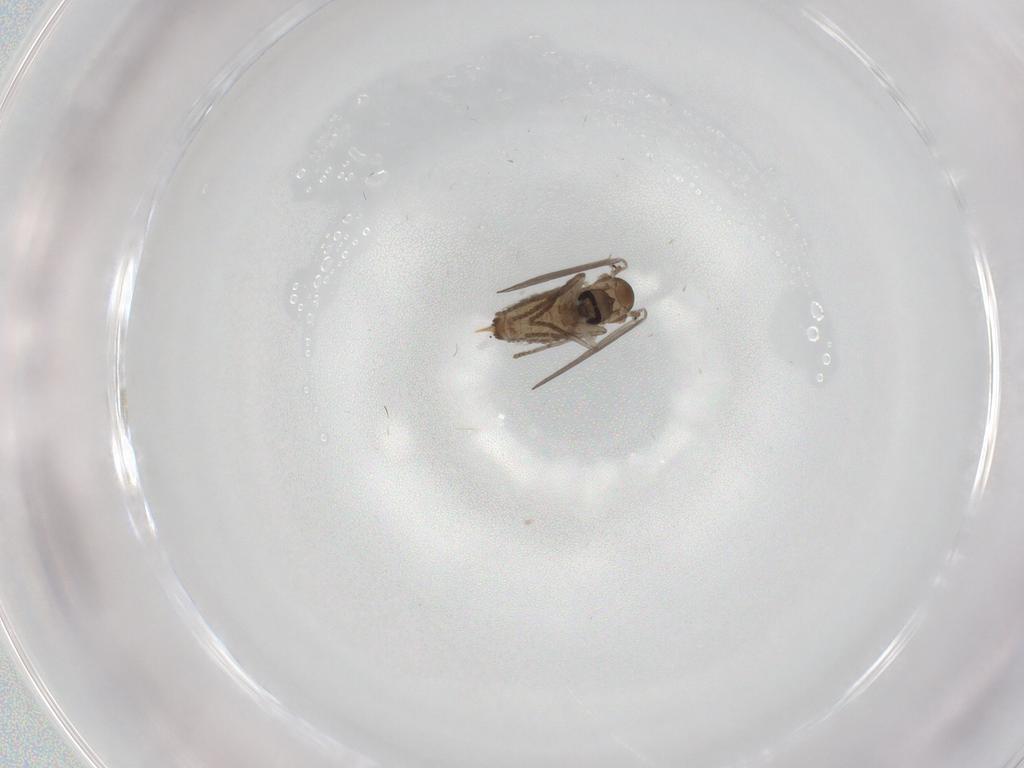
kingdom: Animalia
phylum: Arthropoda
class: Insecta
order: Diptera
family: Psychodidae
